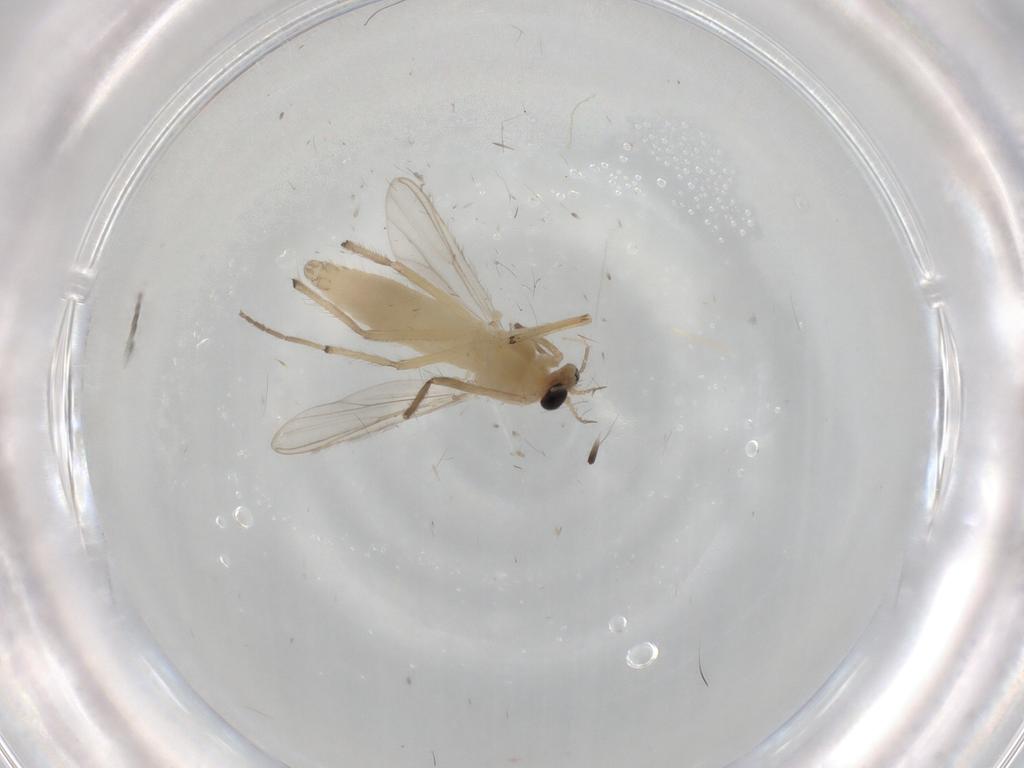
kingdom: Animalia
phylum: Arthropoda
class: Insecta
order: Diptera
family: Chironomidae
